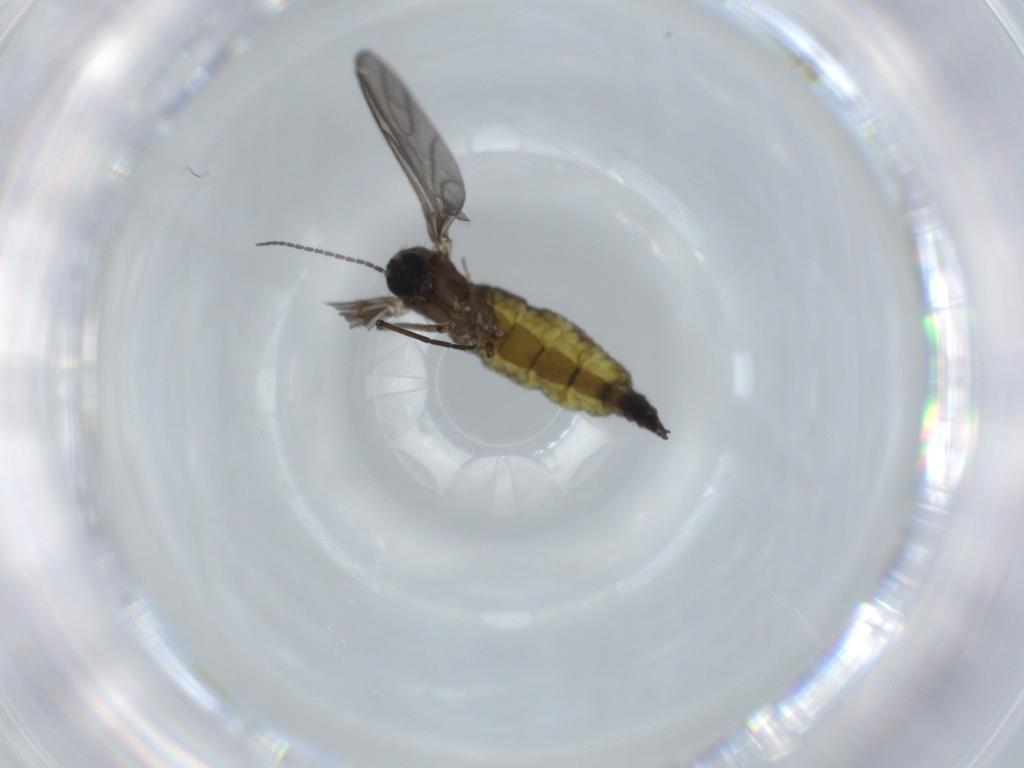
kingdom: Animalia
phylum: Arthropoda
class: Insecta
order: Diptera
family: Sciaridae
